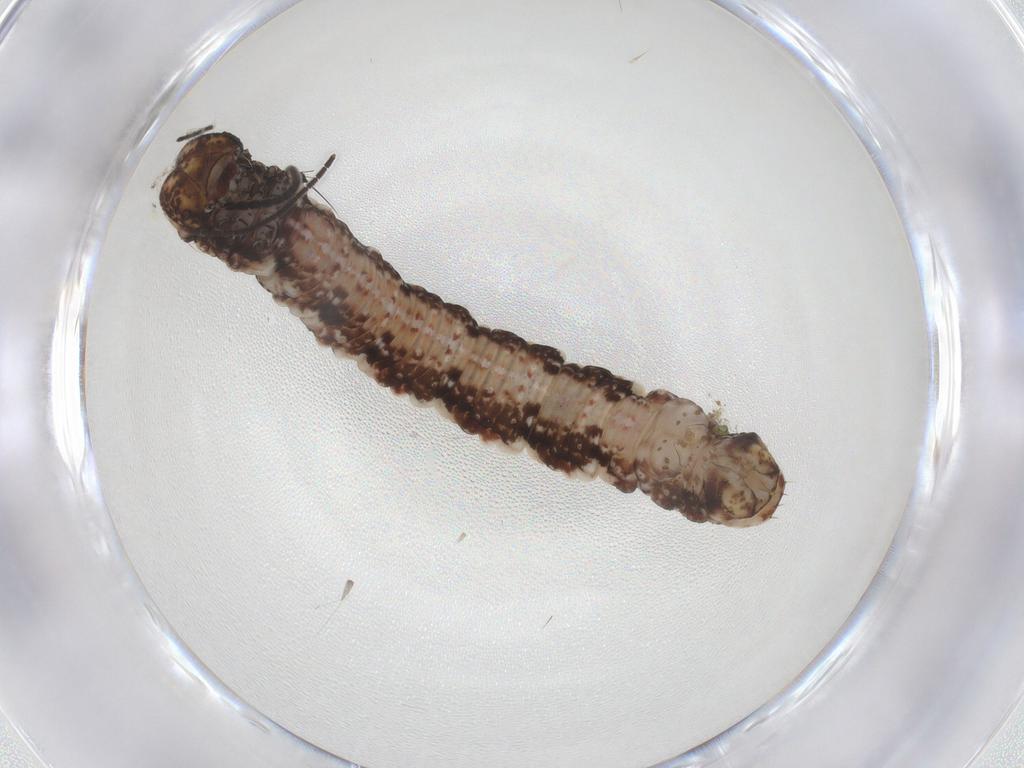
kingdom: Animalia
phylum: Arthropoda
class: Insecta
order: Lepidoptera
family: Geometridae
